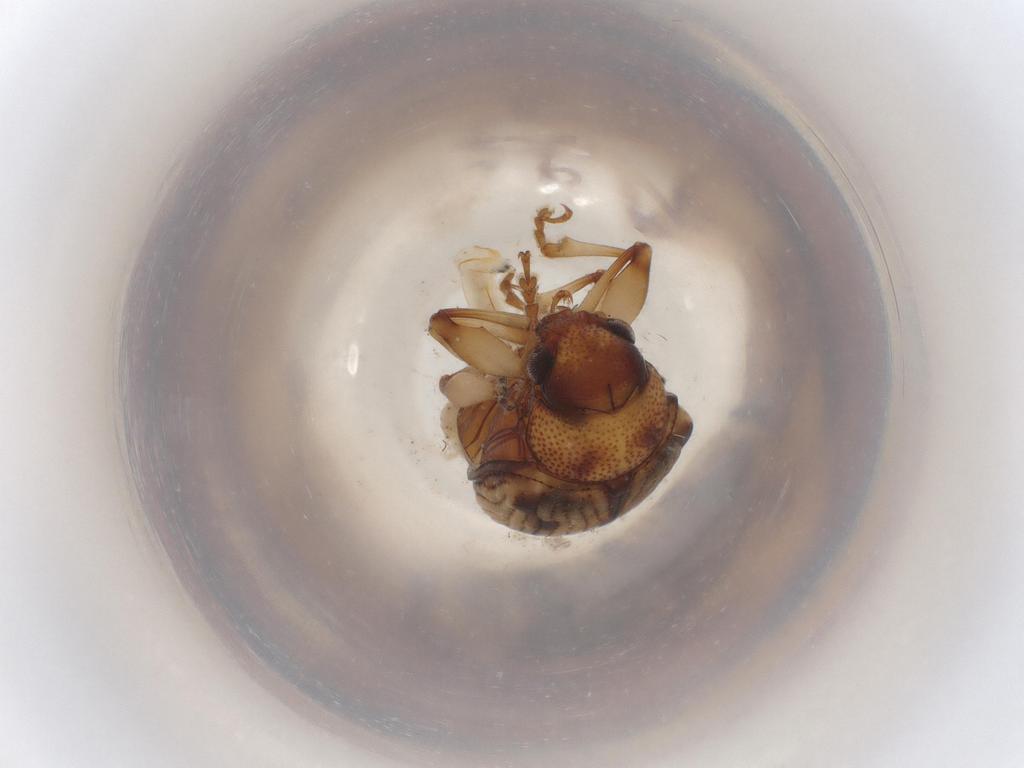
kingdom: Animalia
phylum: Arthropoda
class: Insecta
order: Coleoptera
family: Chrysomelidae
